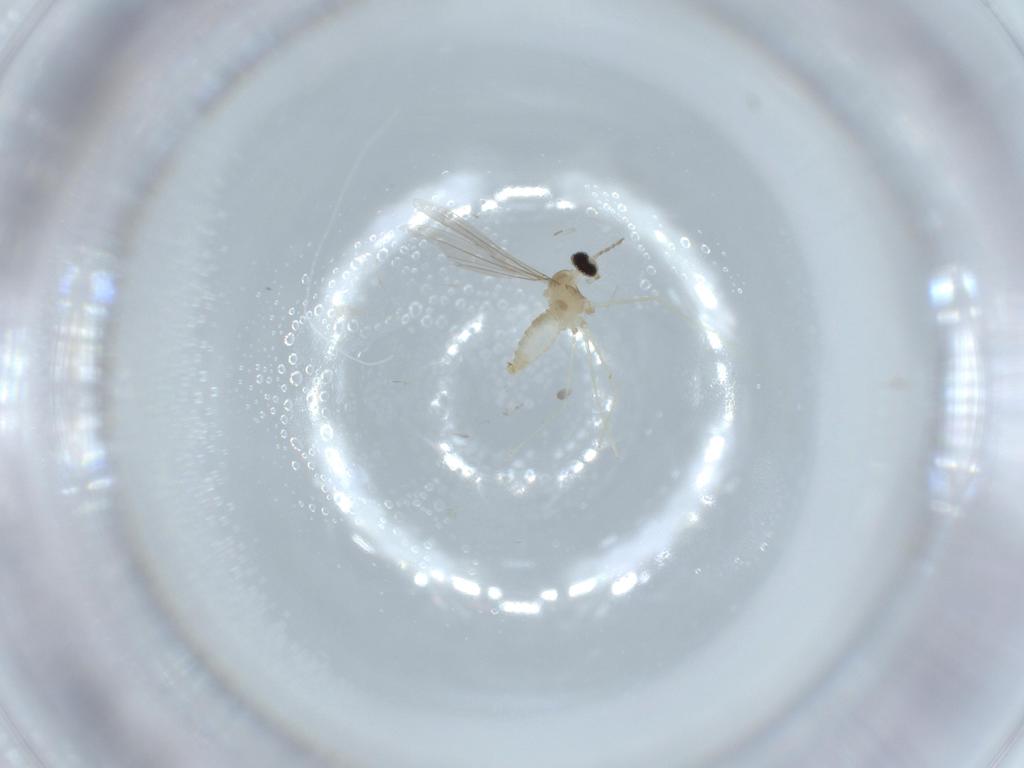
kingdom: Animalia
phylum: Arthropoda
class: Insecta
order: Diptera
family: Cecidomyiidae
